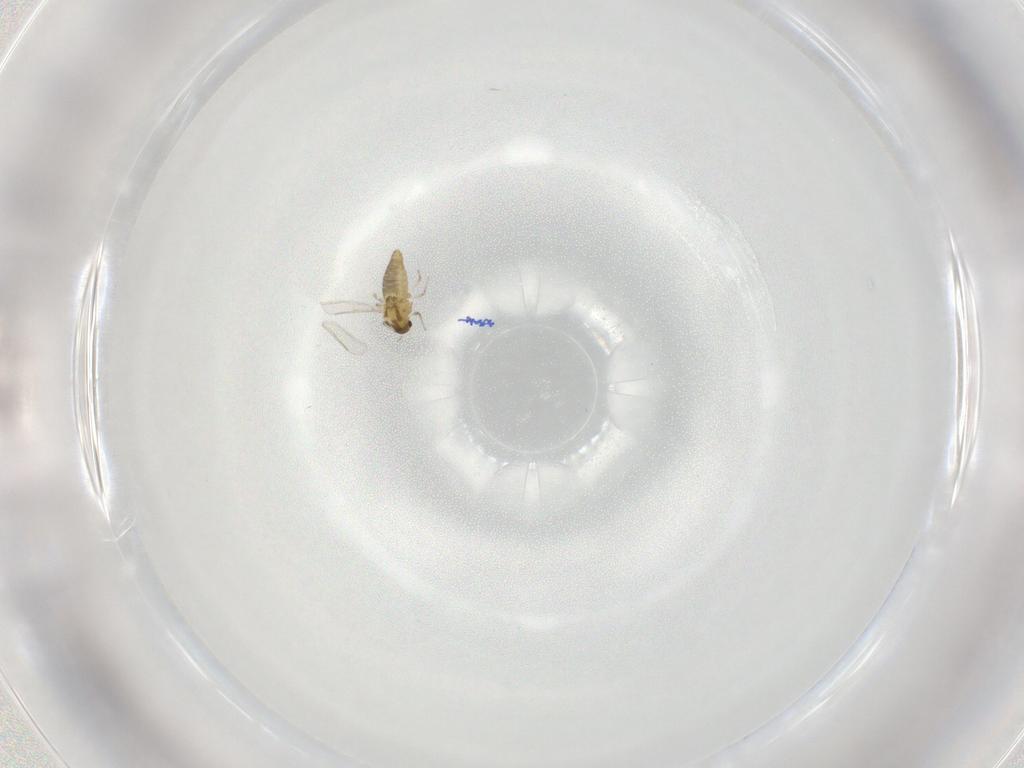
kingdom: Animalia
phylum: Arthropoda
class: Insecta
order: Diptera
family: Chironomidae
